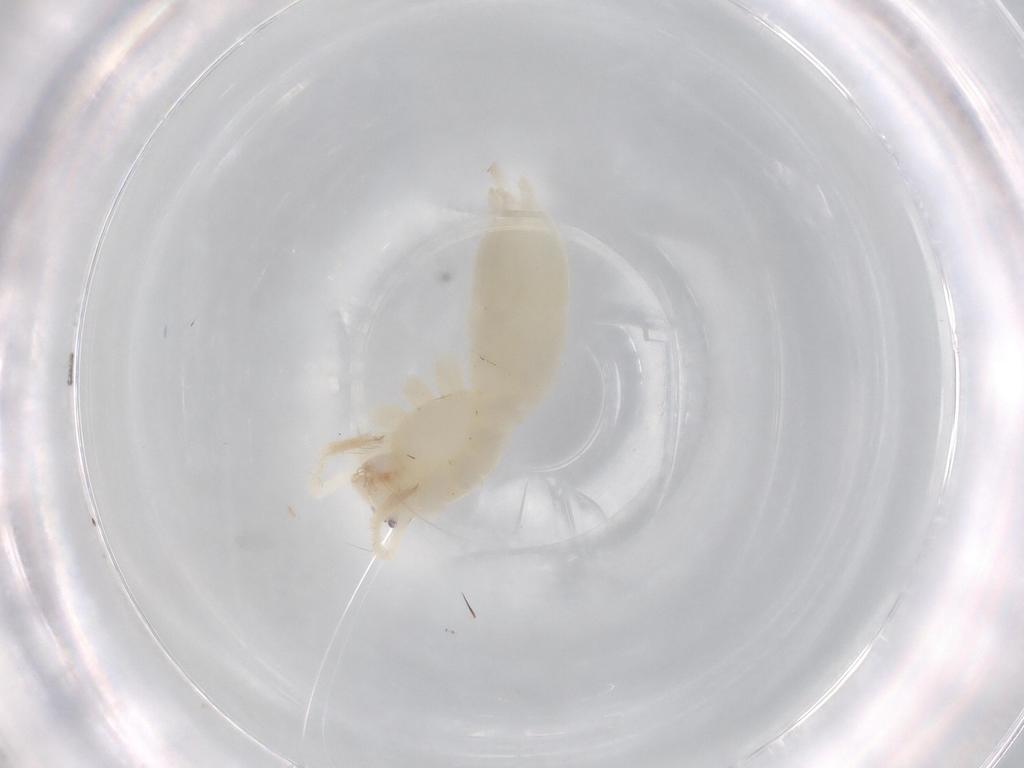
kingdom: Animalia
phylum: Arthropoda
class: Arachnida
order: Araneae
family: Anyphaenidae
